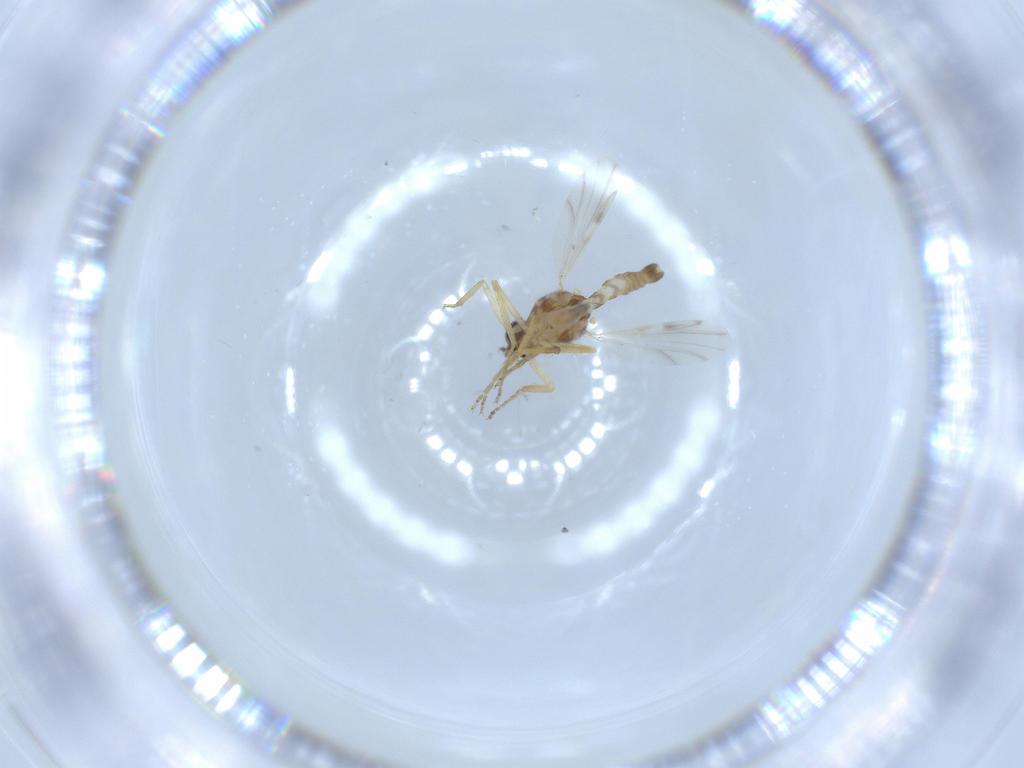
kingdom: Animalia
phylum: Arthropoda
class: Insecta
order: Diptera
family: Ceratopogonidae
